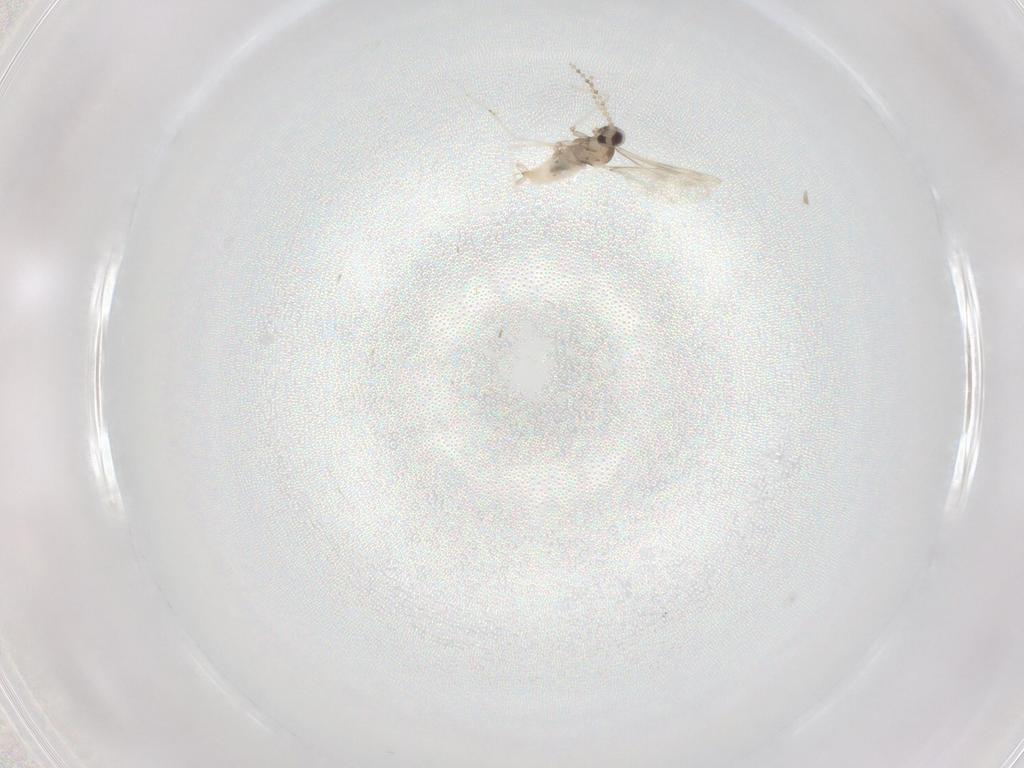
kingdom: Animalia
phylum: Arthropoda
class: Insecta
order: Diptera
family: Cecidomyiidae
